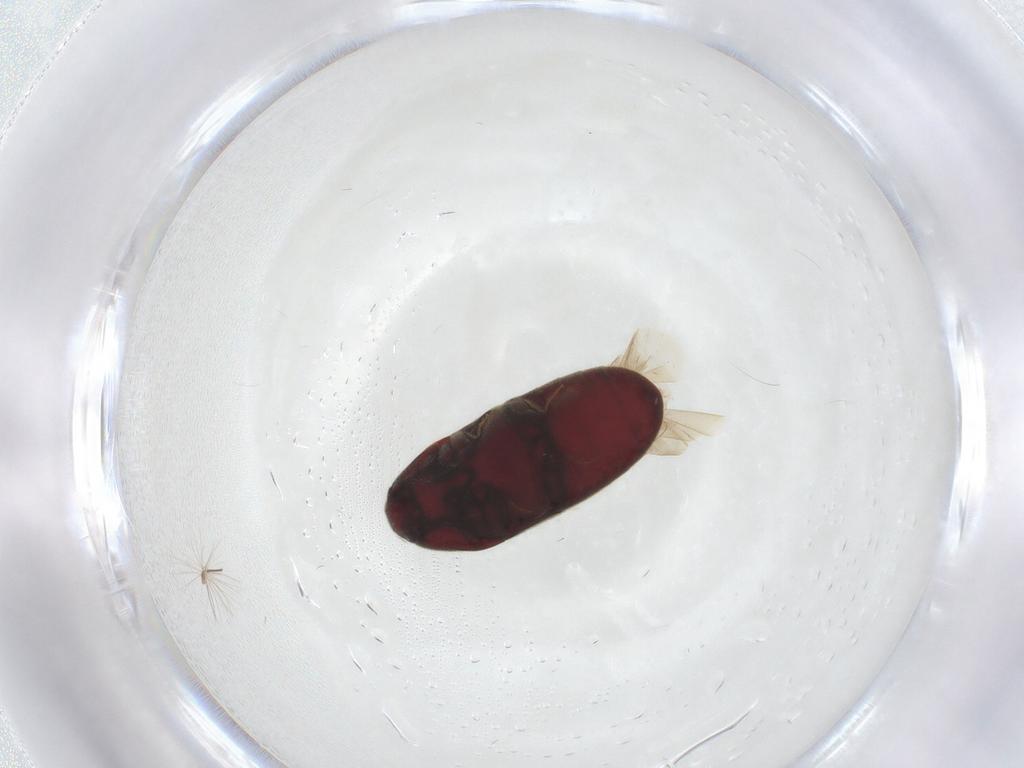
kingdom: Animalia
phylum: Arthropoda
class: Insecta
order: Coleoptera
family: Throscidae
